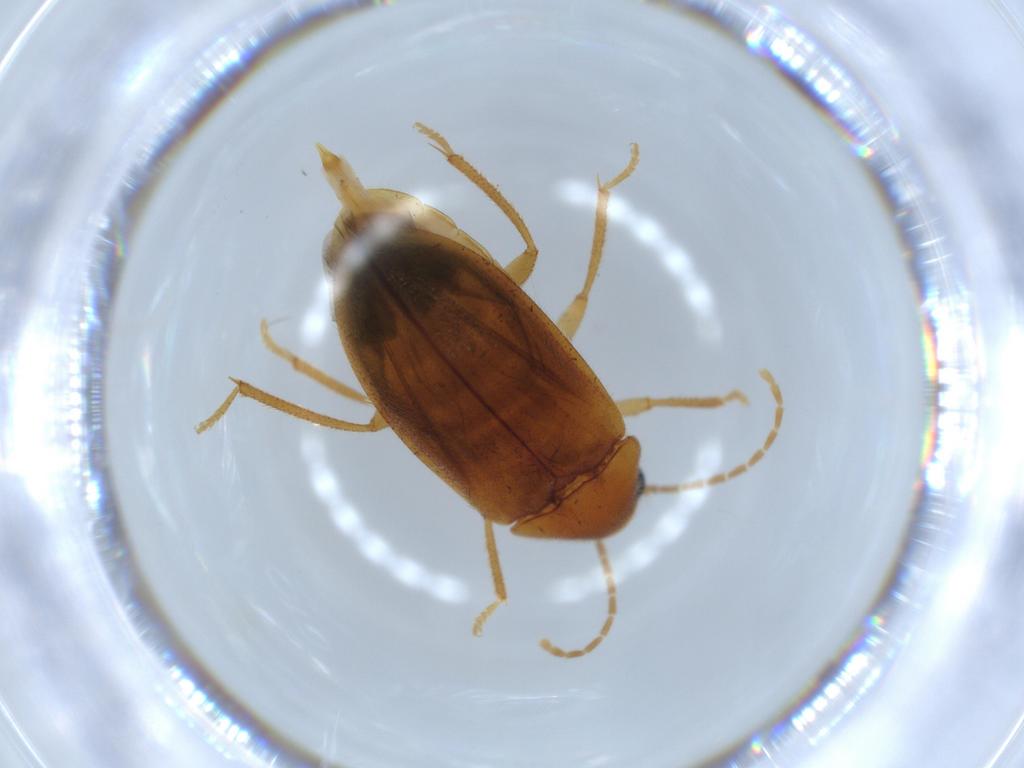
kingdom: Animalia
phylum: Arthropoda
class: Insecta
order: Coleoptera
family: Ptilodactylidae
